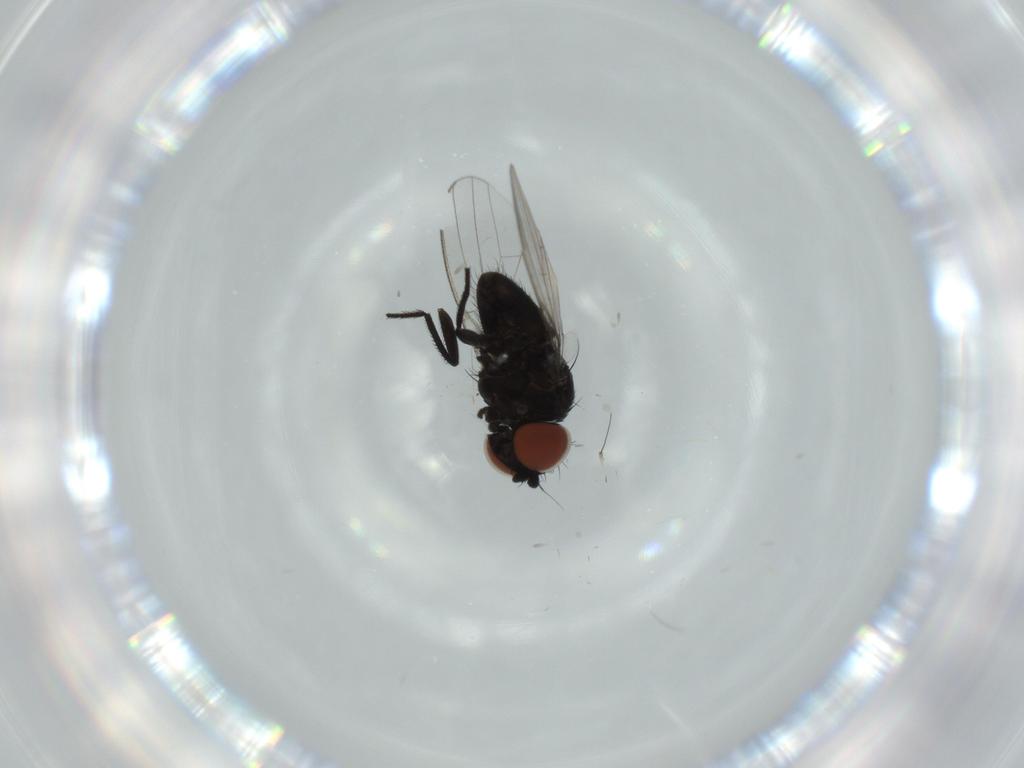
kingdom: Animalia
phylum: Arthropoda
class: Insecta
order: Diptera
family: Milichiidae
